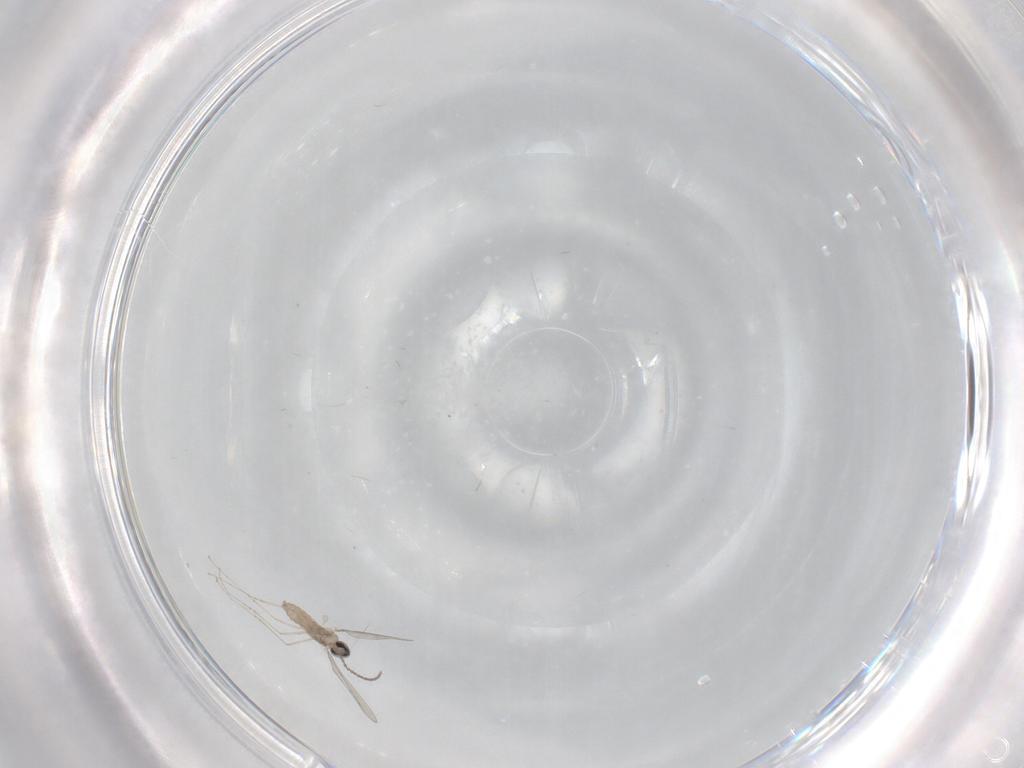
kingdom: Animalia
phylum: Arthropoda
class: Insecta
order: Diptera
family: Cecidomyiidae
